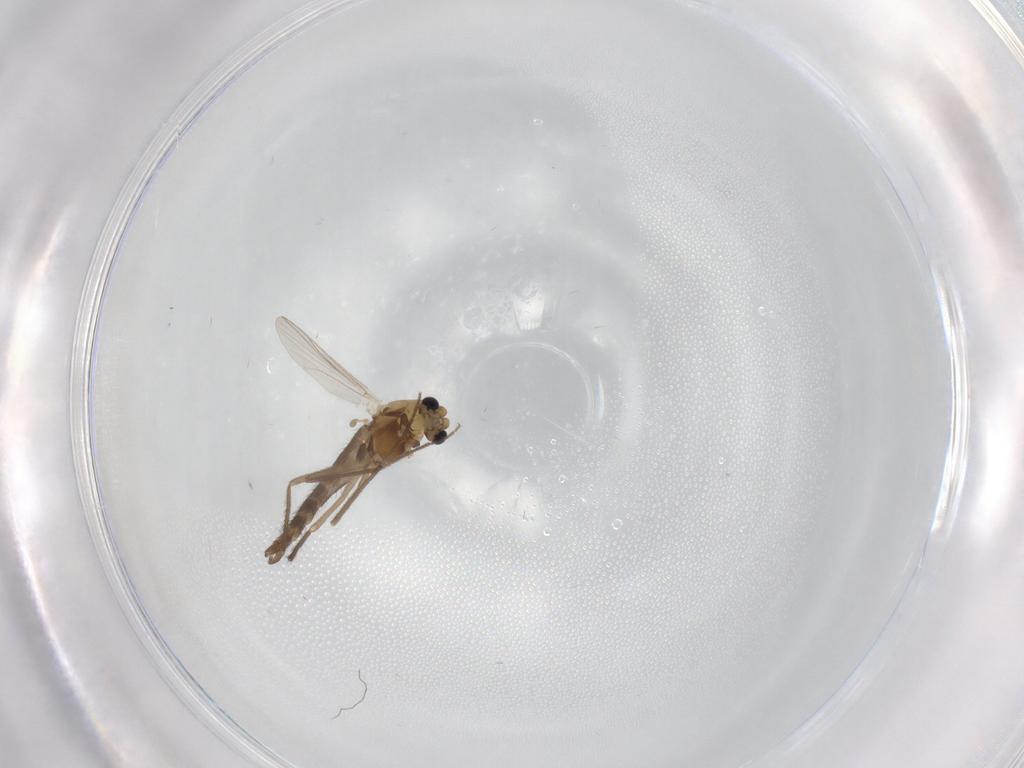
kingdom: Animalia
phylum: Arthropoda
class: Insecta
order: Diptera
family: Chironomidae
